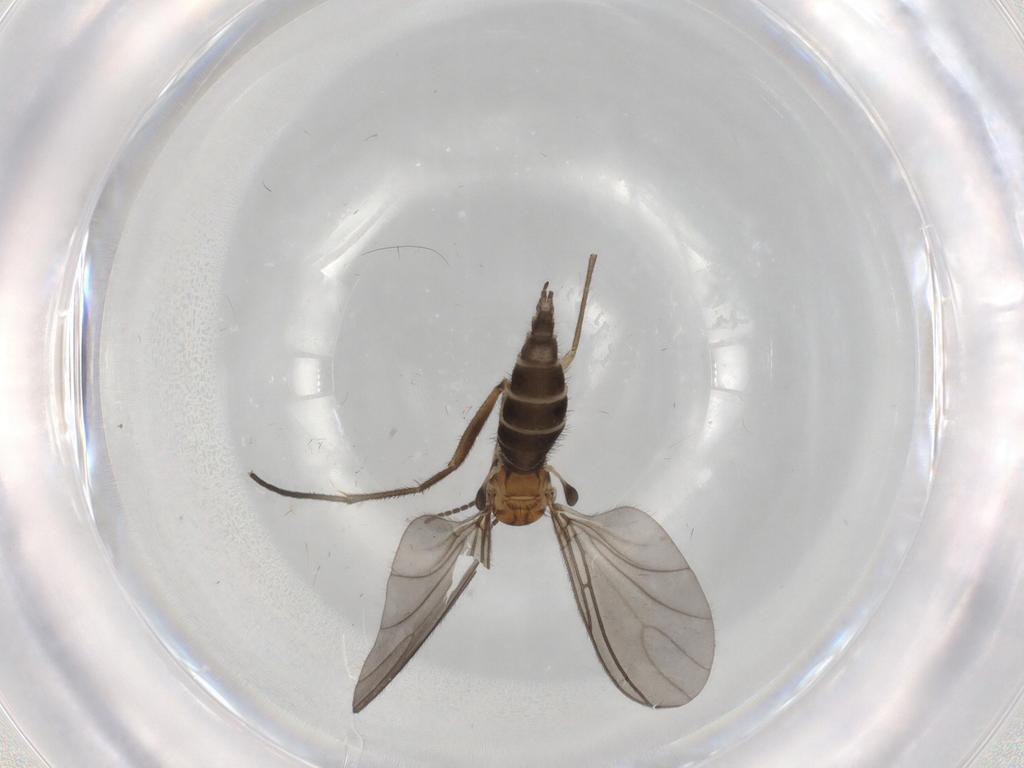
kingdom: Animalia
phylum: Arthropoda
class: Insecta
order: Diptera
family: Sciaridae
